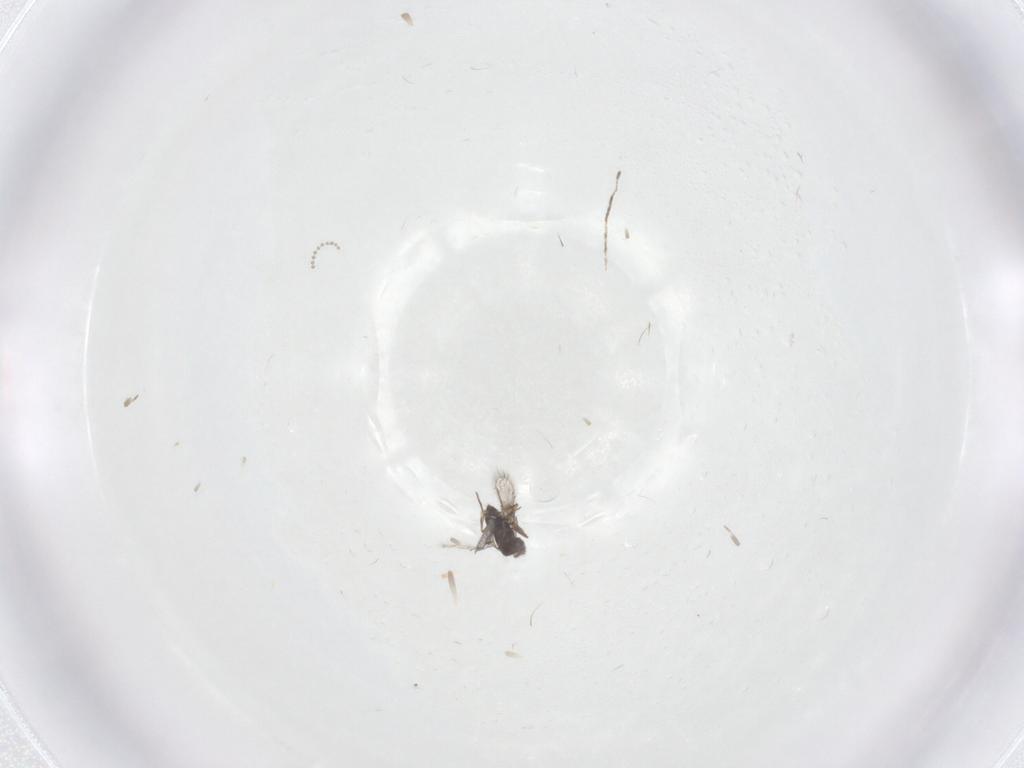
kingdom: Animalia
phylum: Arthropoda
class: Insecta
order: Hymenoptera
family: Trichogrammatidae
